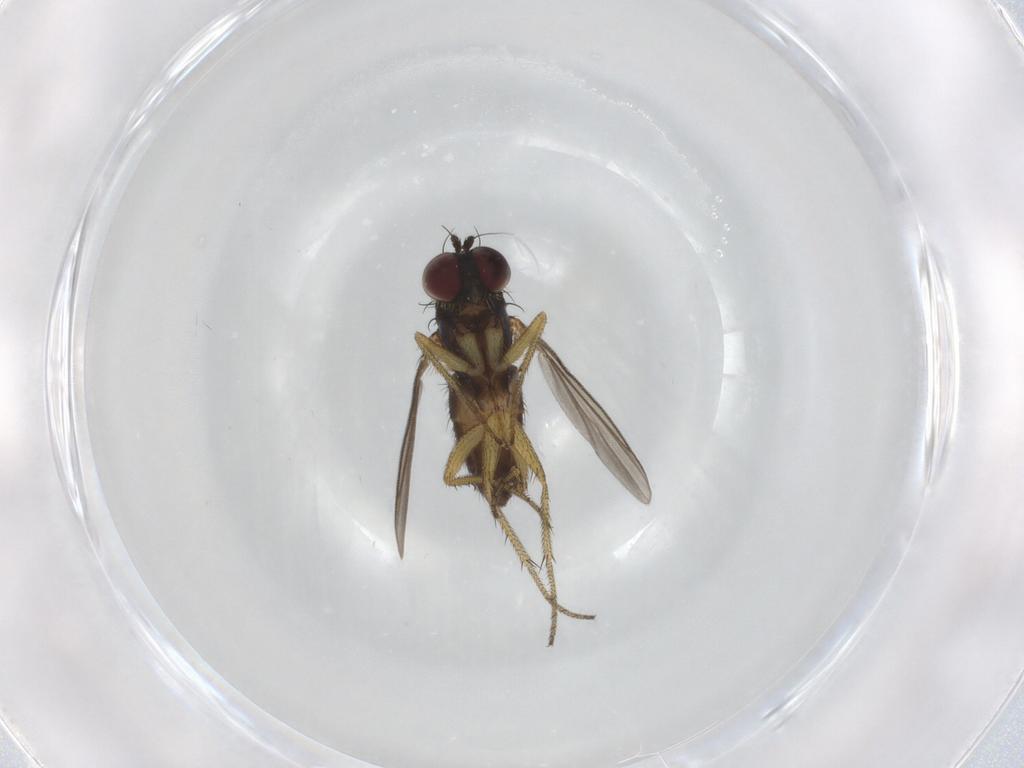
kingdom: Animalia
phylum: Arthropoda
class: Insecta
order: Diptera
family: Dolichopodidae
